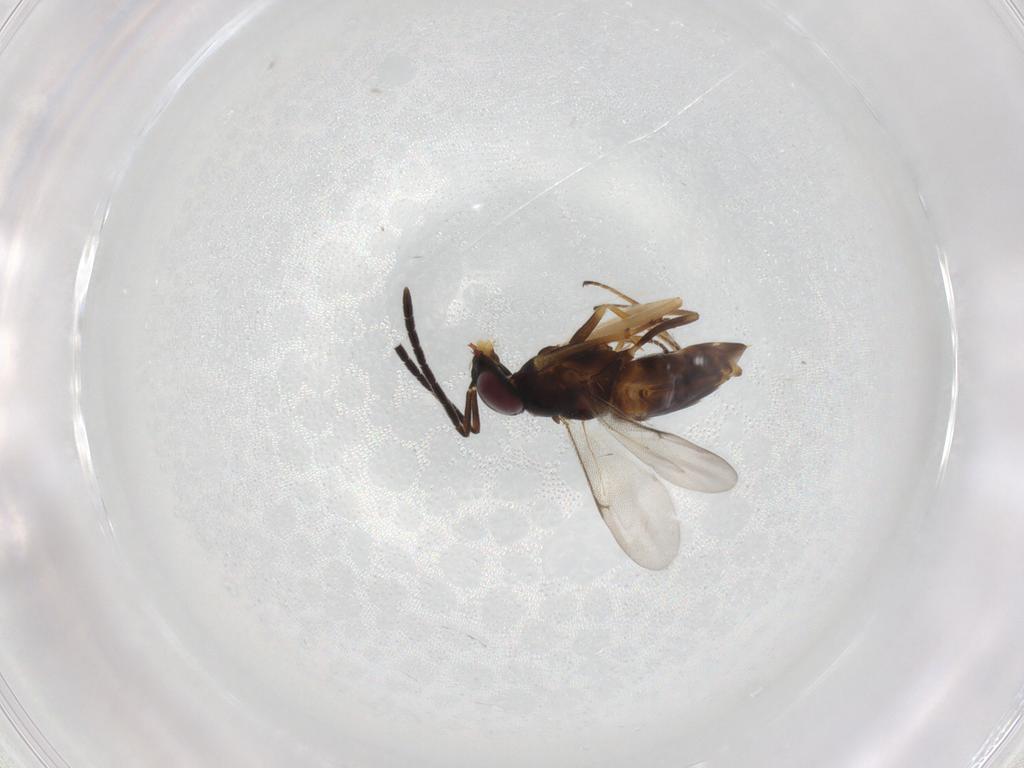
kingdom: Animalia
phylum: Arthropoda
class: Insecta
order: Hymenoptera
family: Encyrtidae
